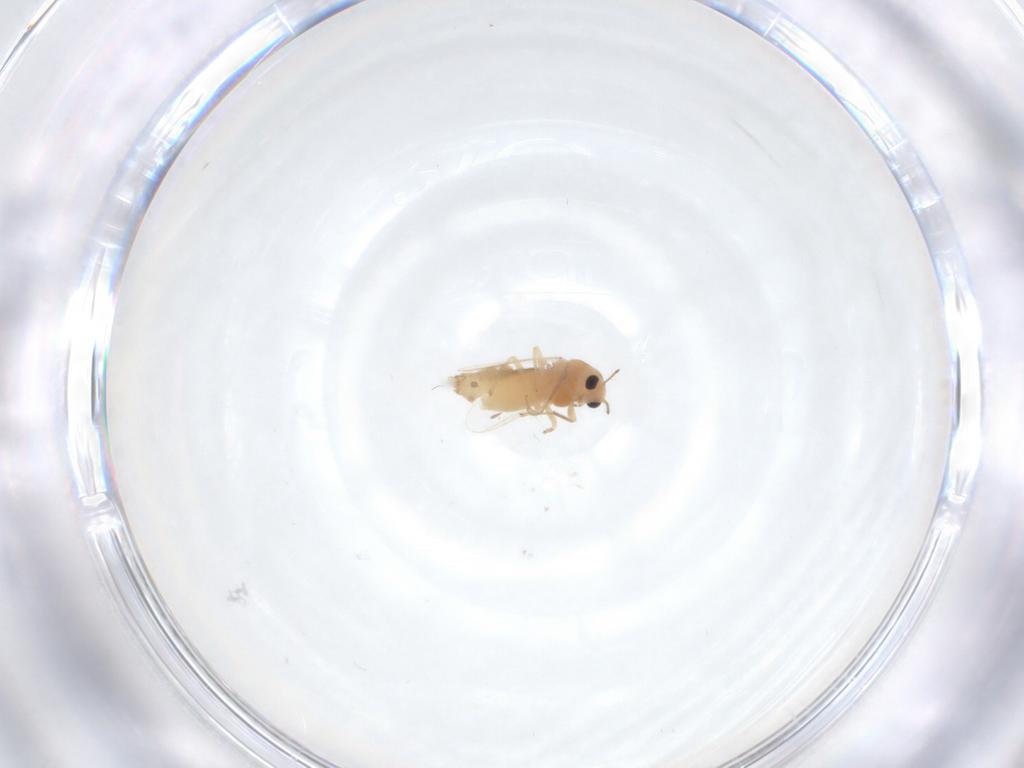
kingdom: Animalia
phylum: Arthropoda
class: Insecta
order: Diptera
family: Chironomidae
